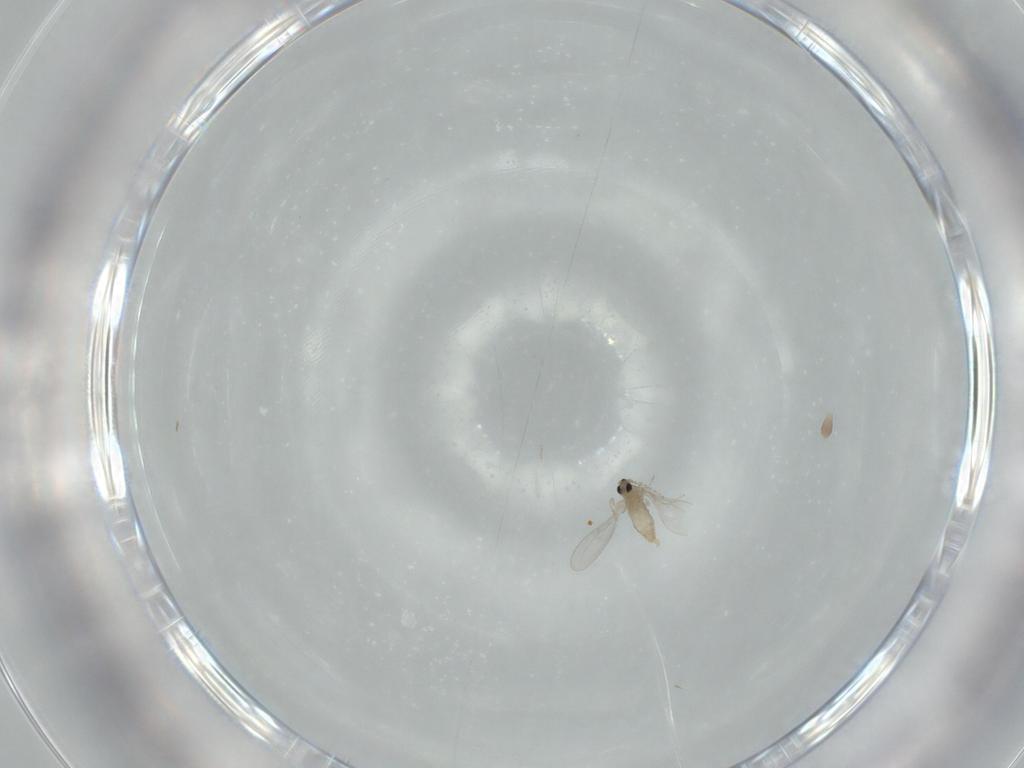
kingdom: Animalia
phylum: Arthropoda
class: Insecta
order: Diptera
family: Cecidomyiidae
